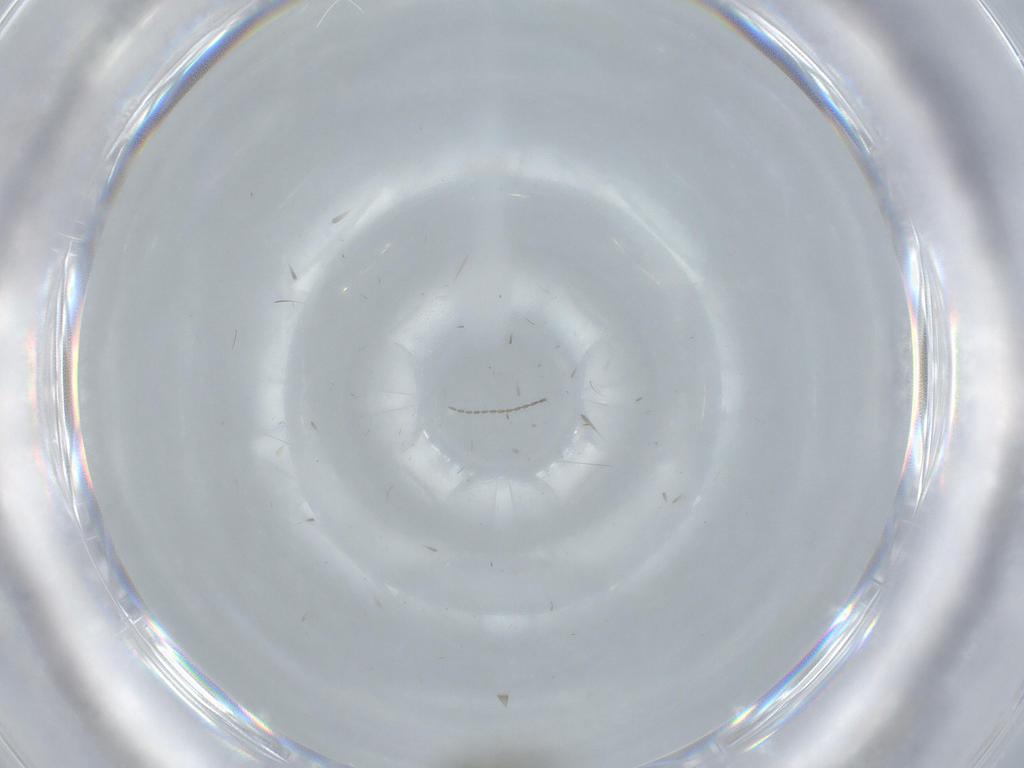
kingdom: Animalia
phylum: Arthropoda
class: Insecta
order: Diptera
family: Phoridae
